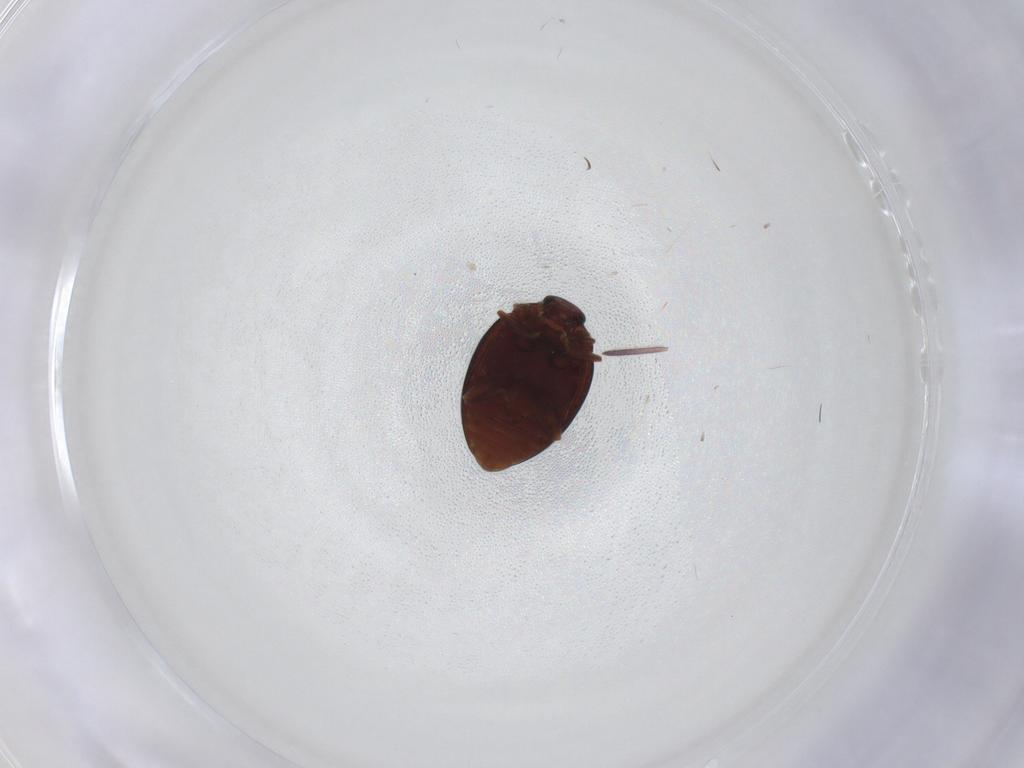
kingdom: Animalia
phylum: Arthropoda
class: Insecta
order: Coleoptera
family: Coccinellidae
